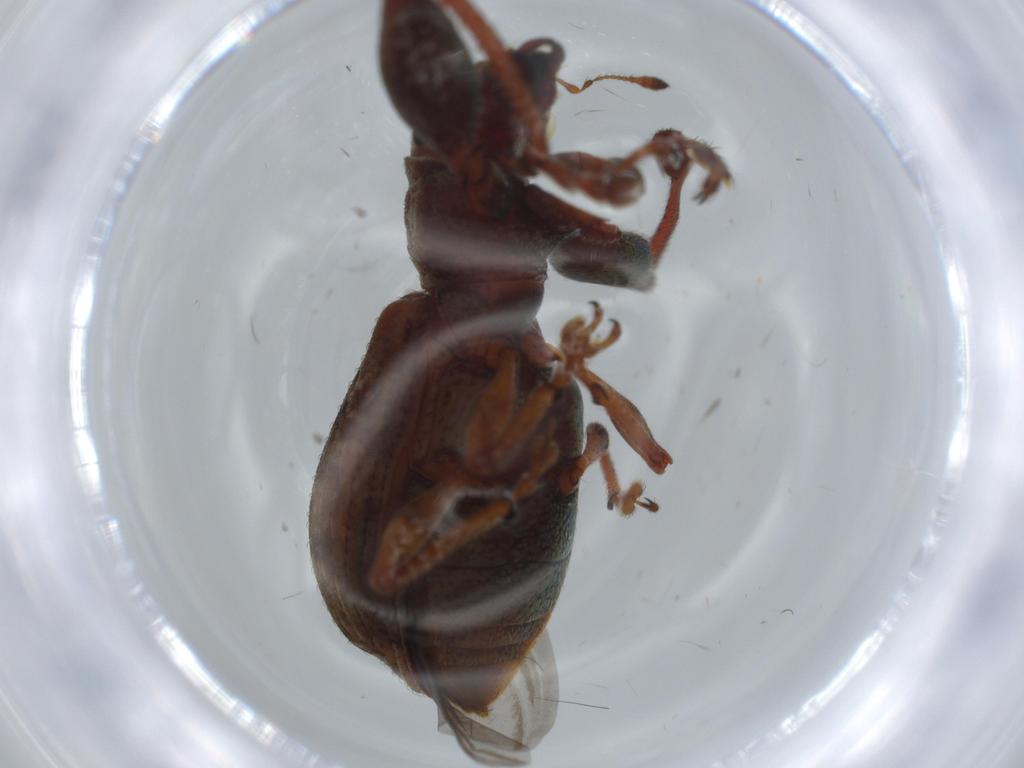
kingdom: Animalia
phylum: Arthropoda
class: Insecta
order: Coleoptera
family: Curculionidae
